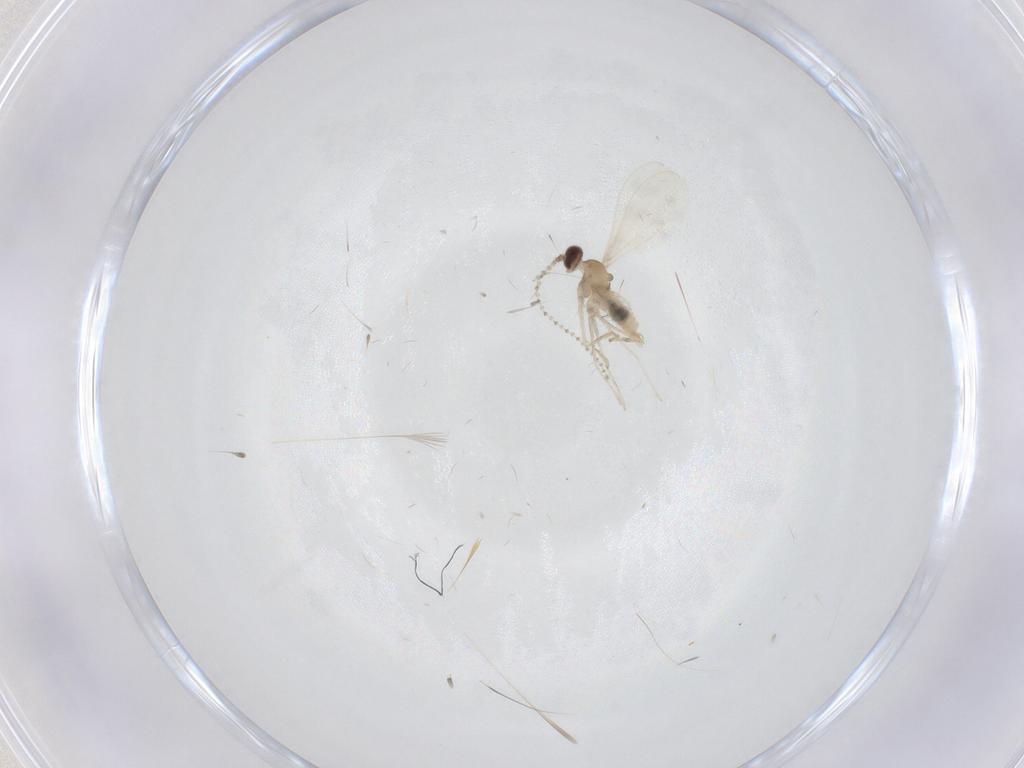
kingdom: Animalia
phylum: Arthropoda
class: Insecta
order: Diptera
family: Cecidomyiidae
